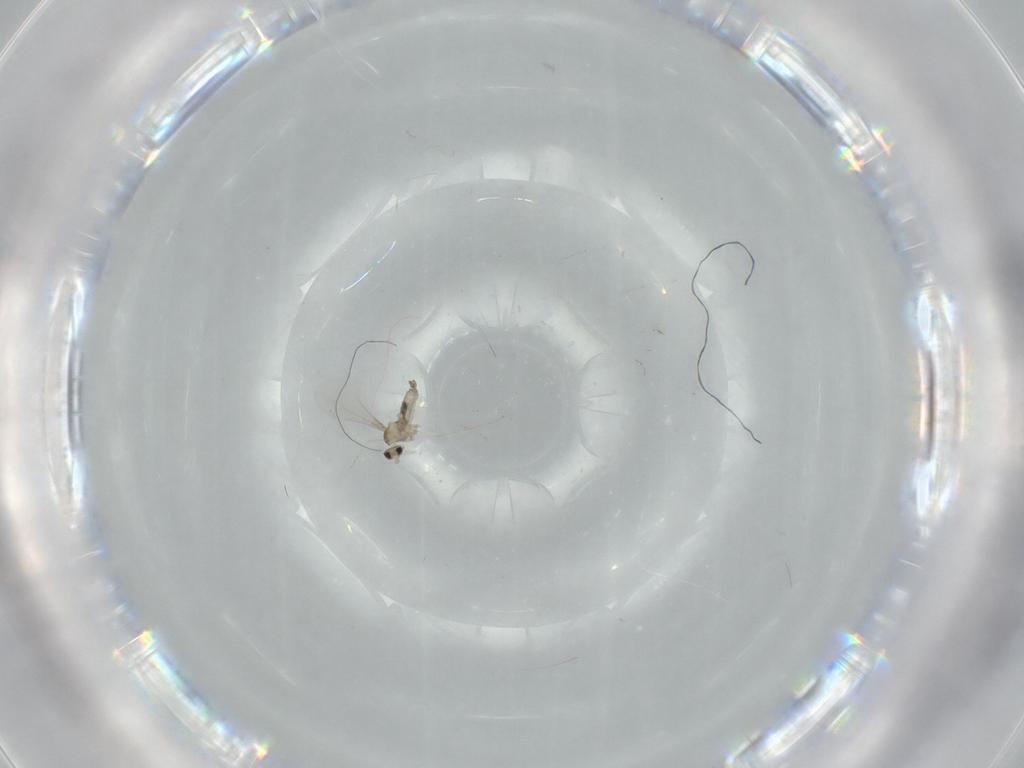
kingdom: Animalia
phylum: Arthropoda
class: Insecta
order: Diptera
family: Cecidomyiidae
